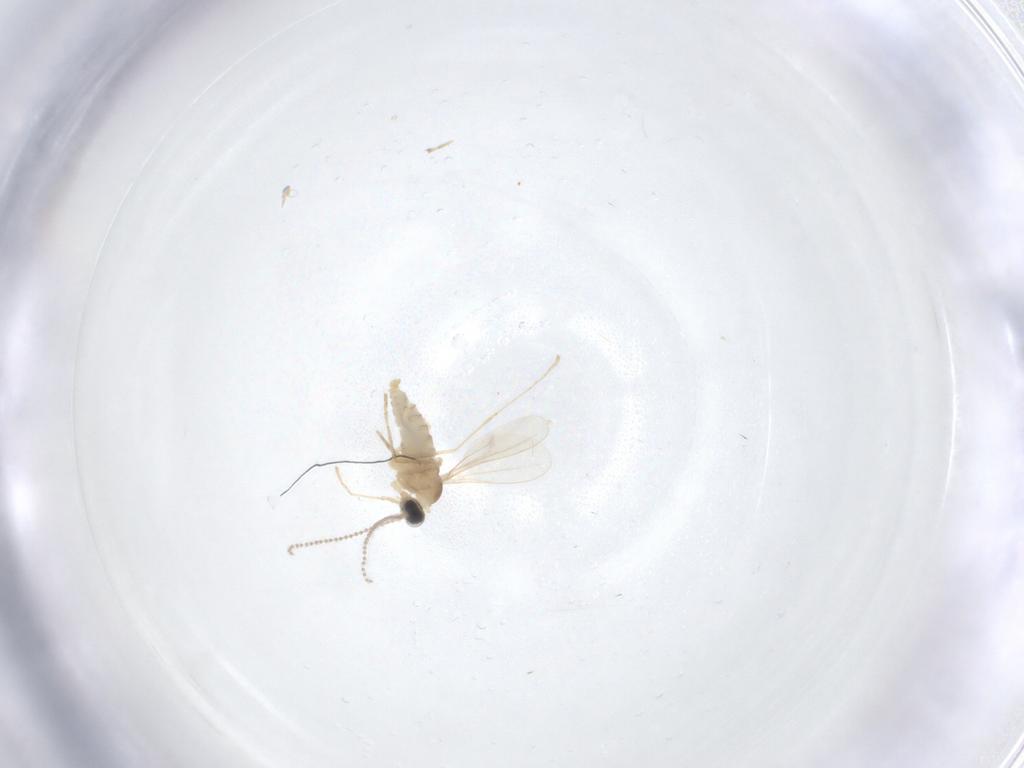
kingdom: Animalia
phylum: Arthropoda
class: Insecta
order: Diptera
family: Cecidomyiidae
